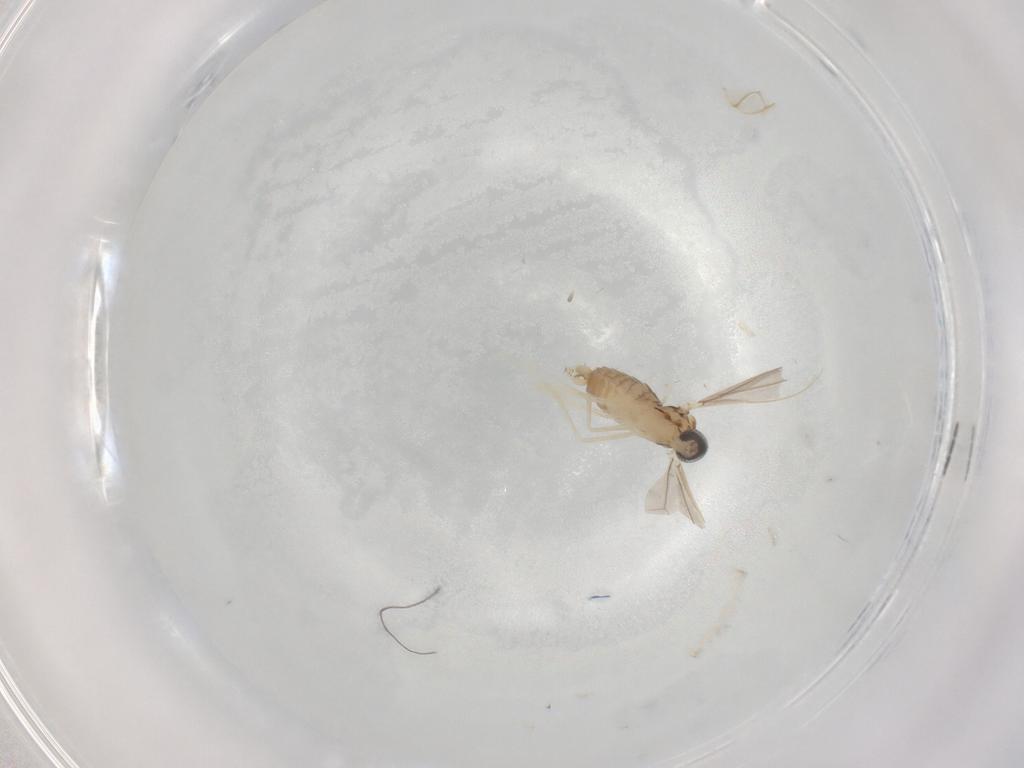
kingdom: Animalia
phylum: Arthropoda
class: Insecta
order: Diptera
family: Cecidomyiidae
